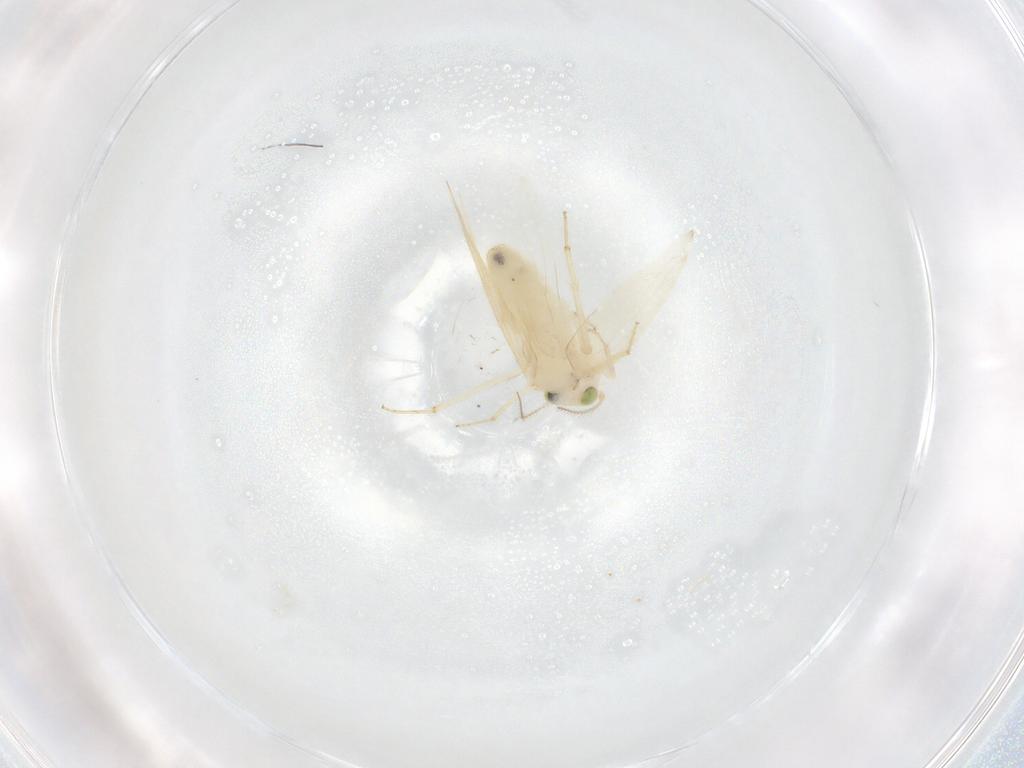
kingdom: Animalia
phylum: Arthropoda
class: Insecta
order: Psocodea
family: Lepidopsocidae
